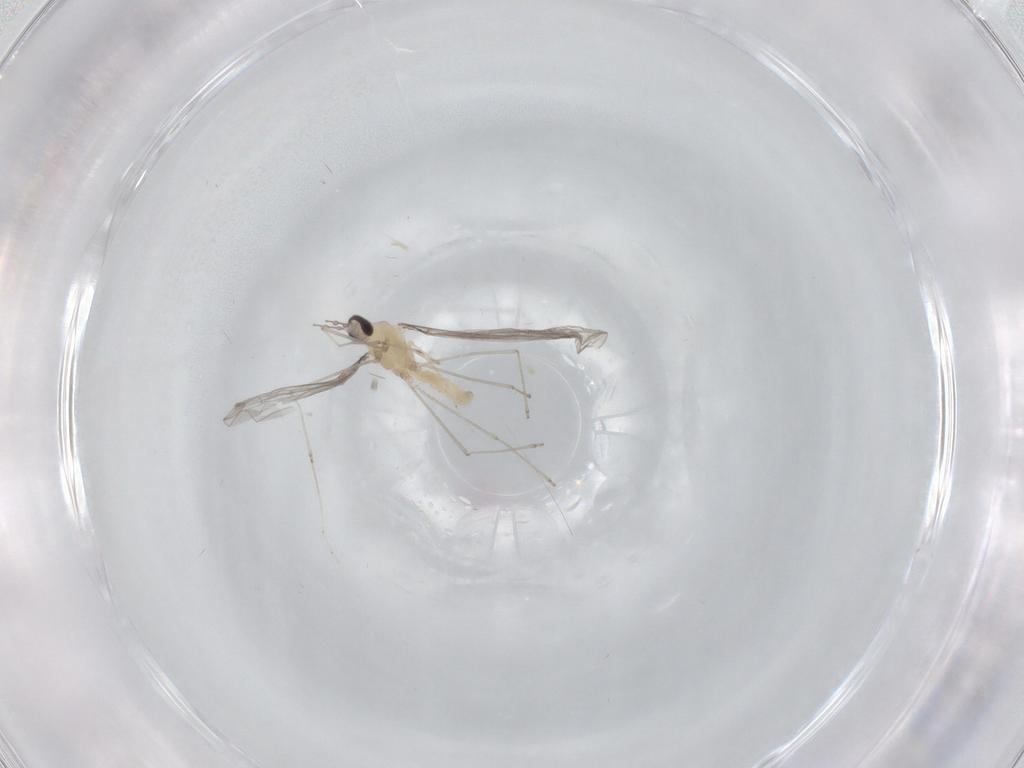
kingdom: Animalia
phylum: Arthropoda
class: Insecta
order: Diptera
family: Cecidomyiidae
